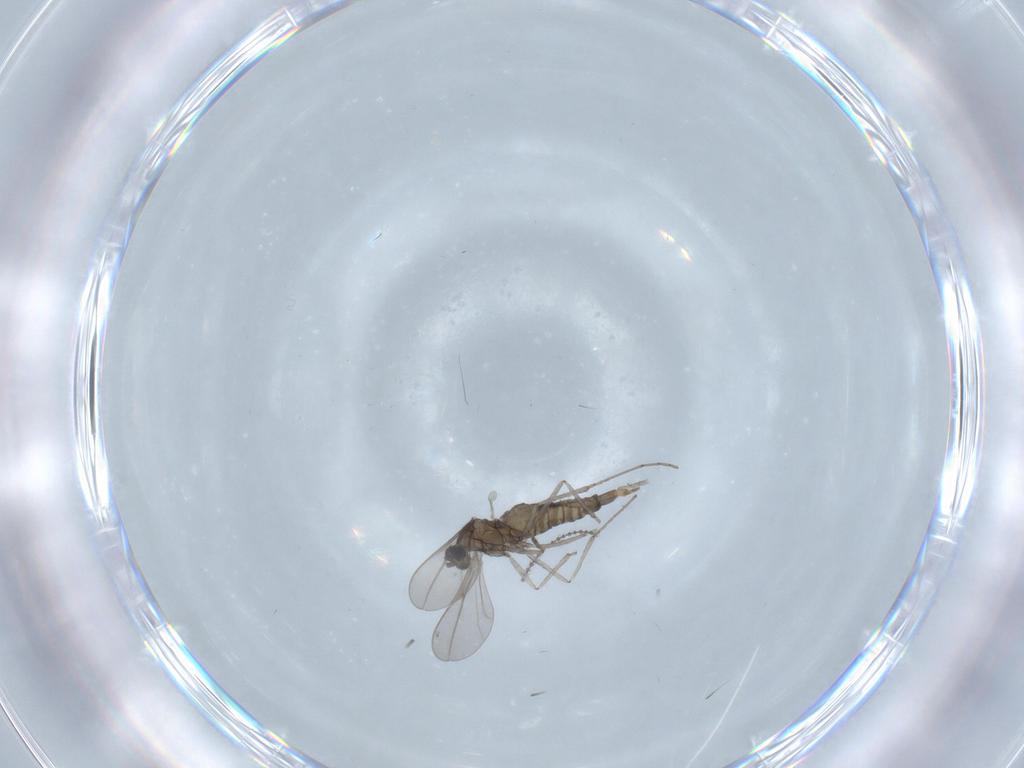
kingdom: Animalia
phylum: Arthropoda
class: Insecta
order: Diptera
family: Cecidomyiidae
